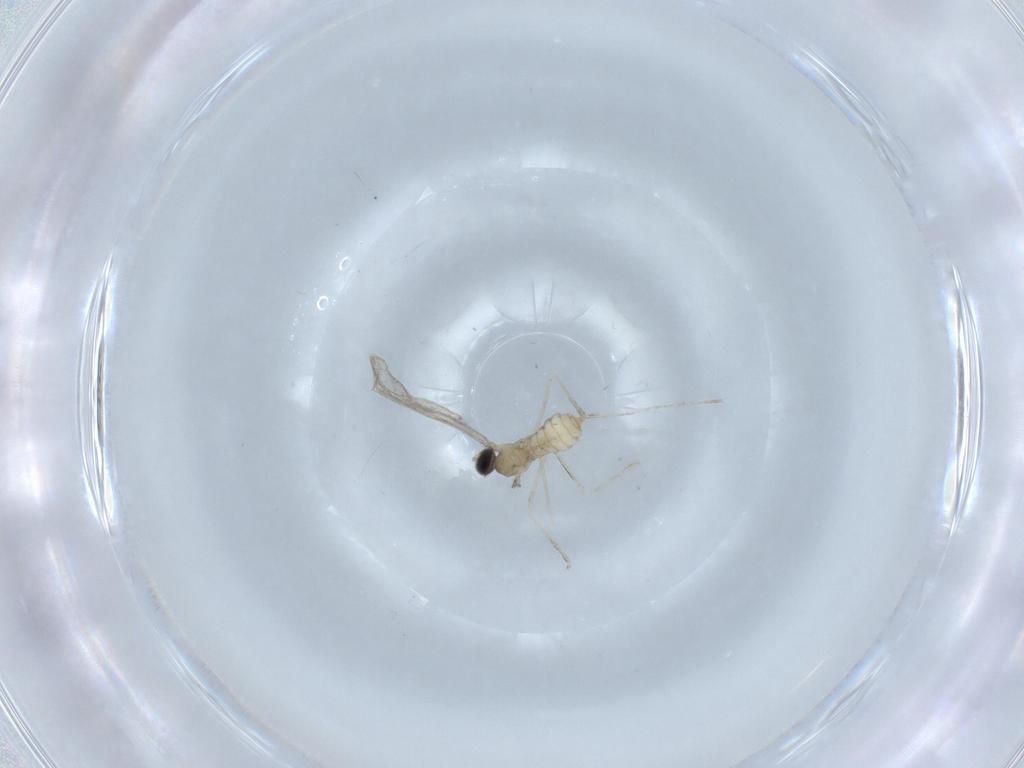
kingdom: Animalia
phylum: Arthropoda
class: Insecta
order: Diptera
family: Cecidomyiidae
